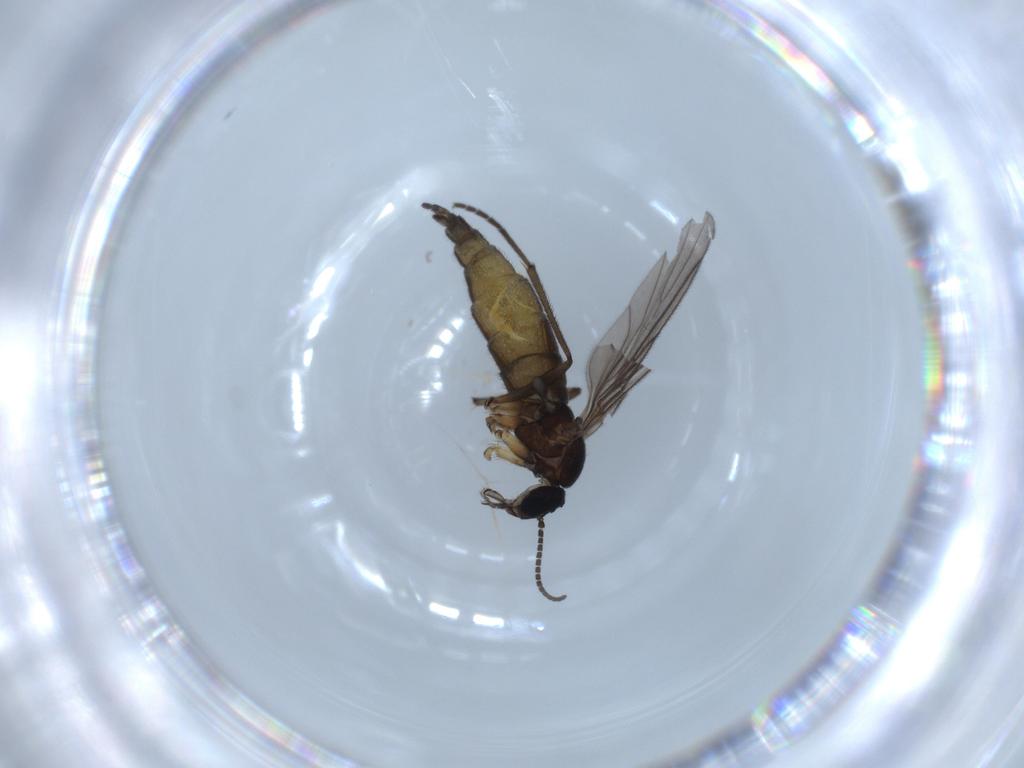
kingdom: Animalia
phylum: Arthropoda
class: Insecta
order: Diptera
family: Sciaridae
